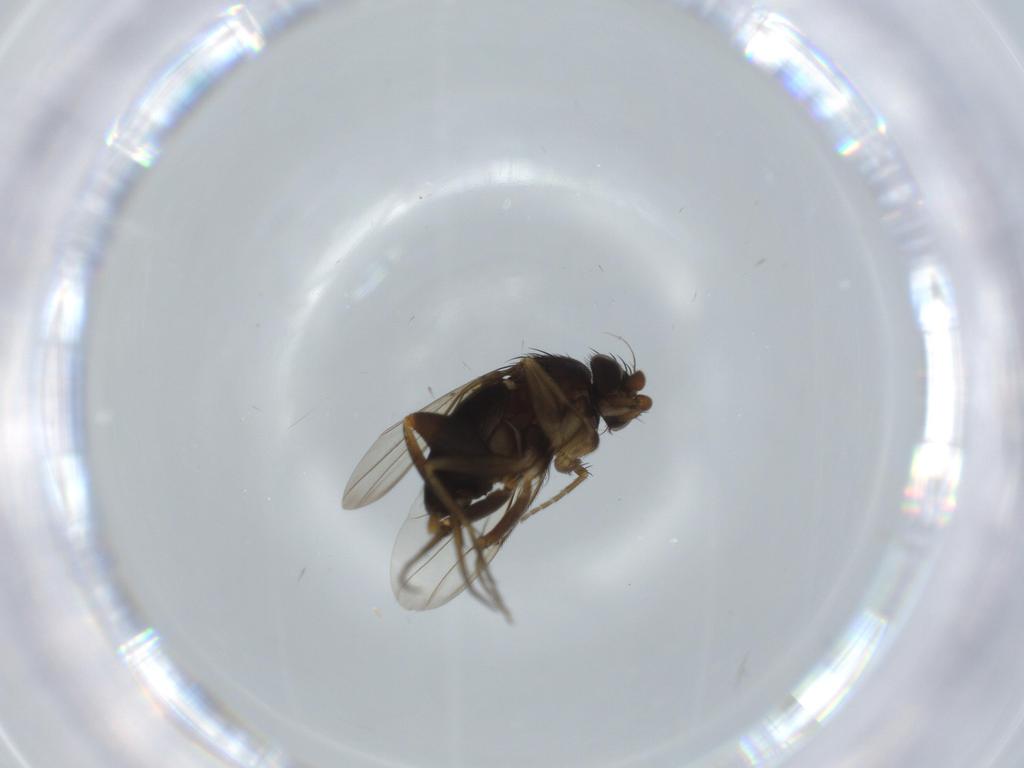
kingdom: Animalia
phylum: Arthropoda
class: Insecta
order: Diptera
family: Phoridae
